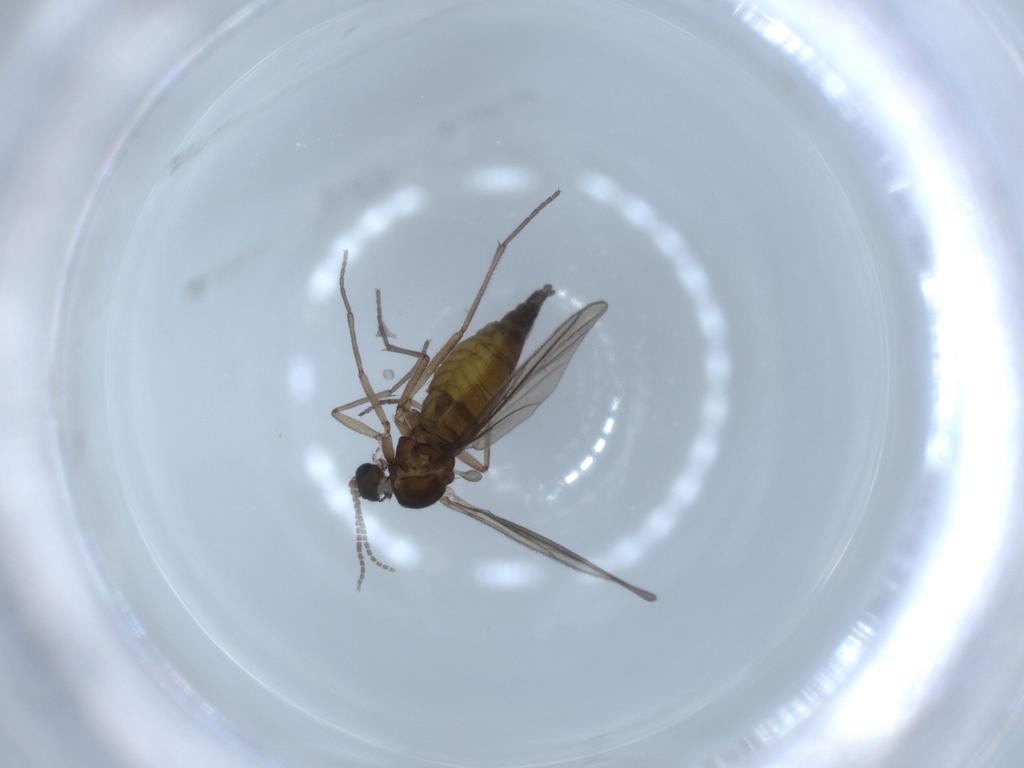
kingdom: Animalia
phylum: Arthropoda
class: Insecta
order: Diptera
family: Sciaridae
